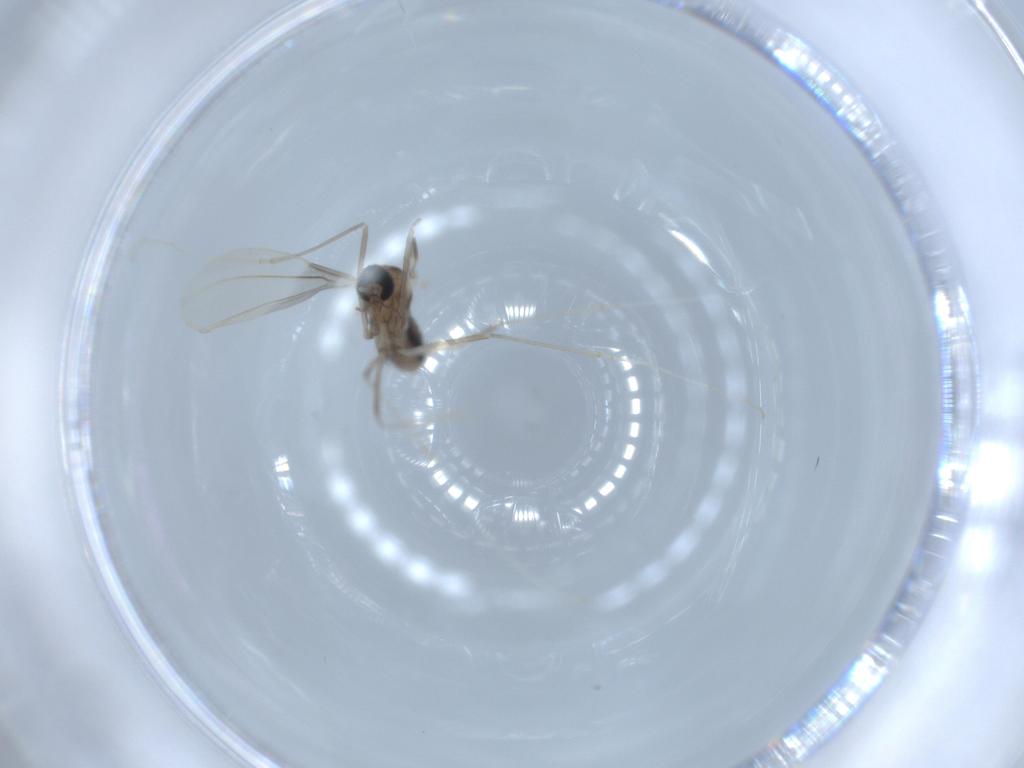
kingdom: Animalia
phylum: Arthropoda
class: Insecta
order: Diptera
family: Cecidomyiidae
